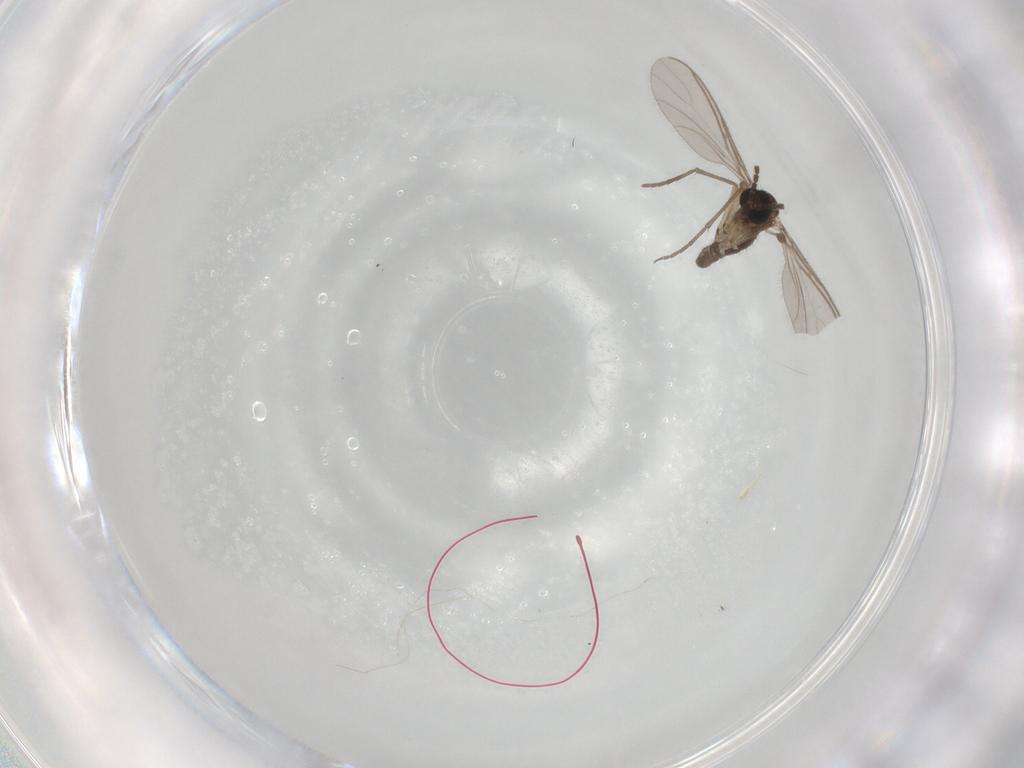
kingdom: Animalia
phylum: Arthropoda
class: Insecta
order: Diptera
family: Sciaridae
